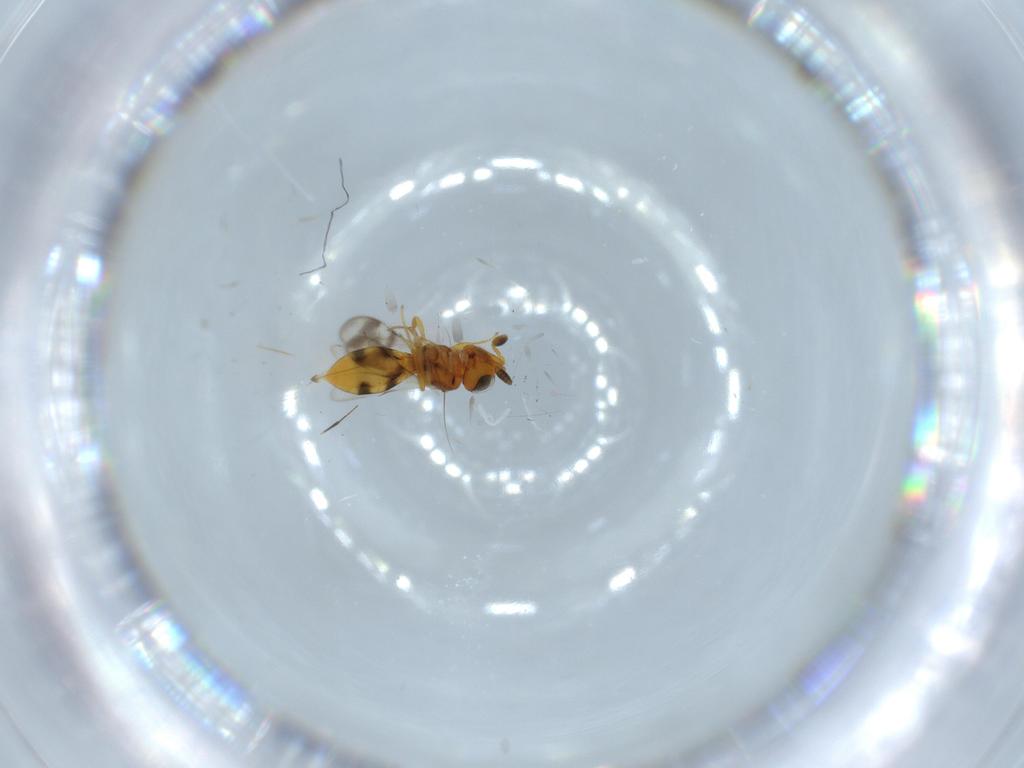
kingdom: Animalia
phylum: Arthropoda
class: Insecta
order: Hymenoptera
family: Scelionidae
